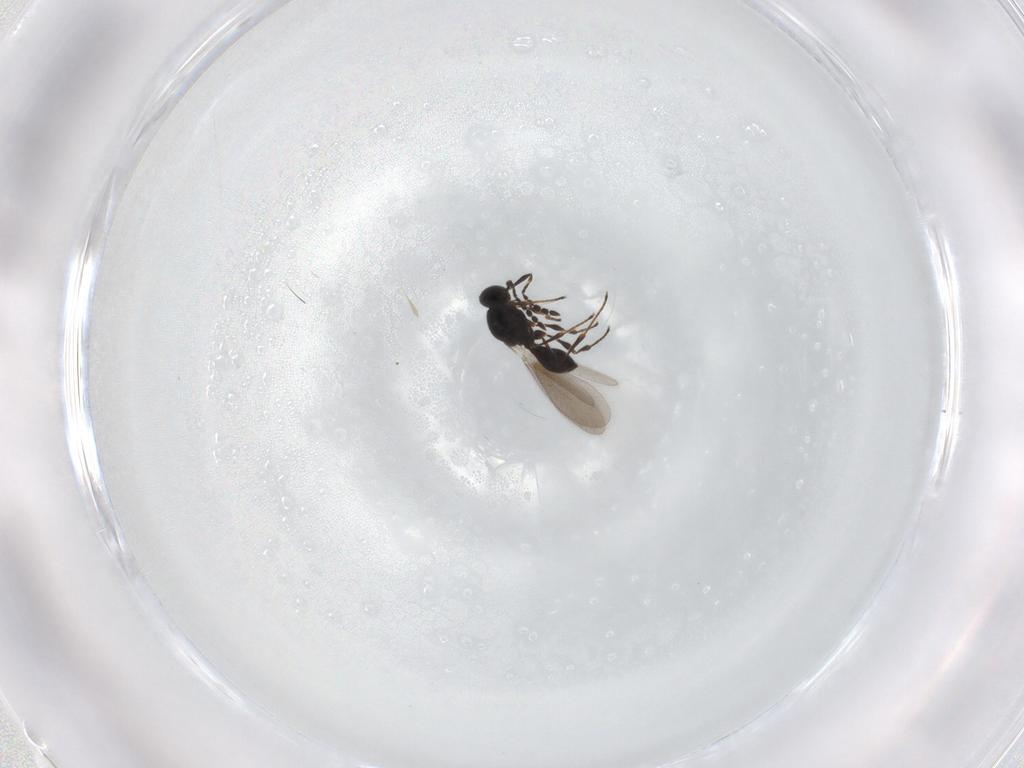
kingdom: Animalia
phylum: Arthropoda
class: Insecta
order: Hymenoptera
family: Platygastridae
